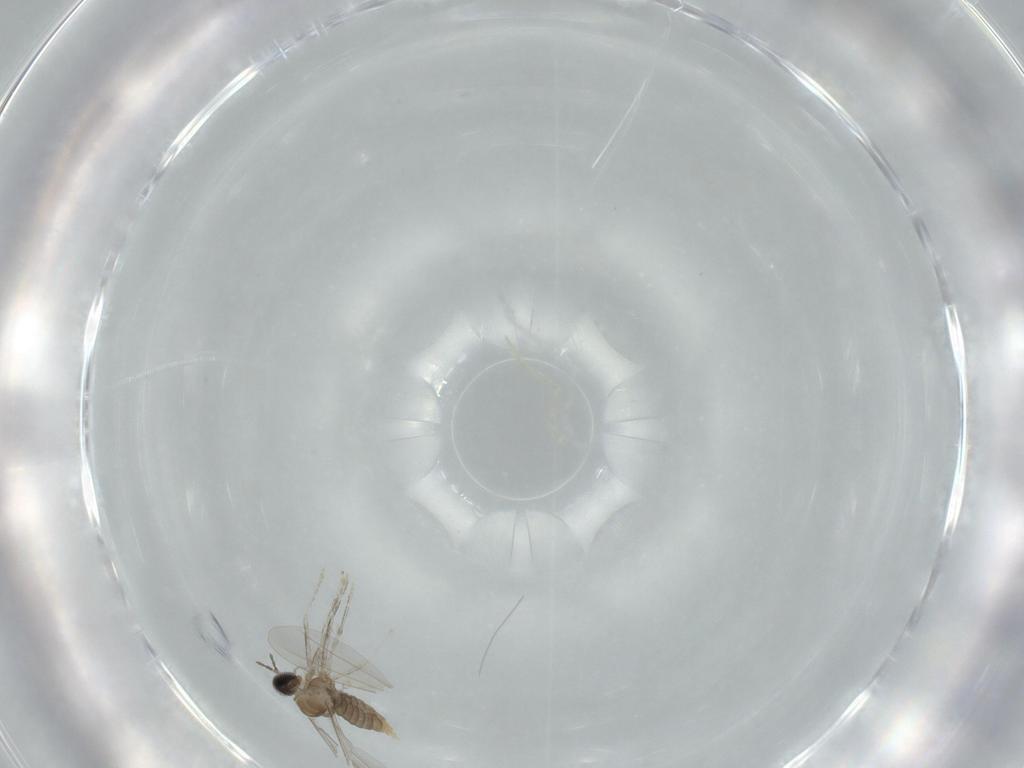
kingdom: Animalia
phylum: Arthropoda
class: Insecta
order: Diptera
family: Cecidomyiidae
